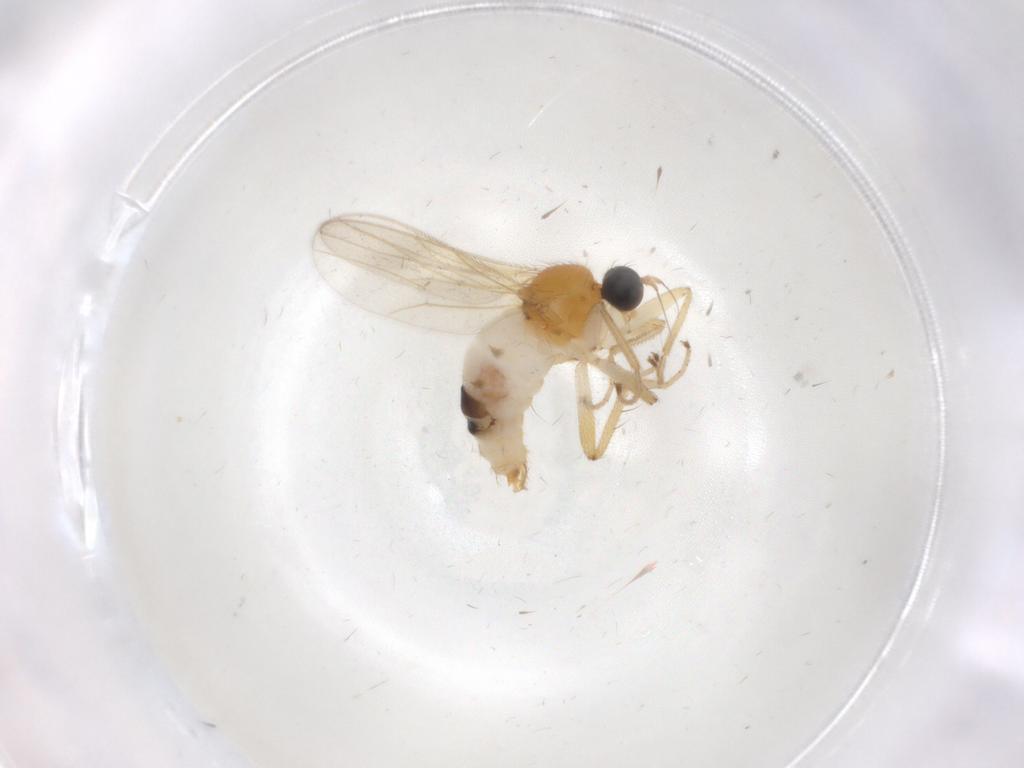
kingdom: Animalia
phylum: Arthropoda
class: Insecta
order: Diptera
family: Hybotidae
